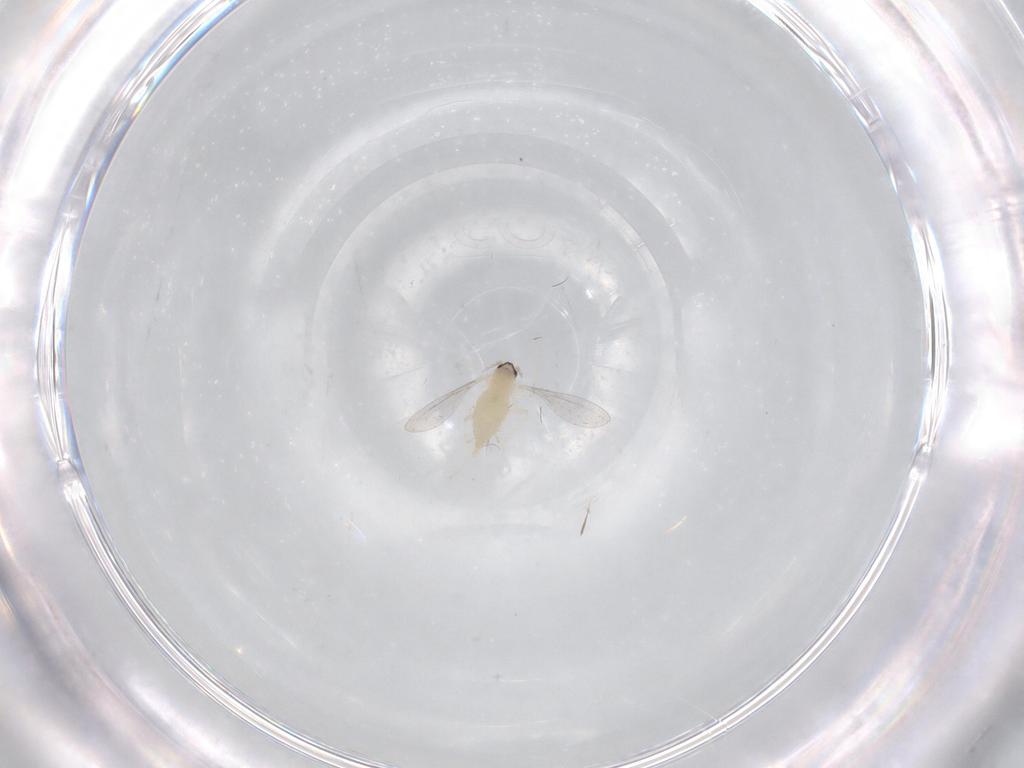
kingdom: Animalia
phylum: Arthropoda
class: Insecta
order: Diptera
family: Cecidomyiidae
